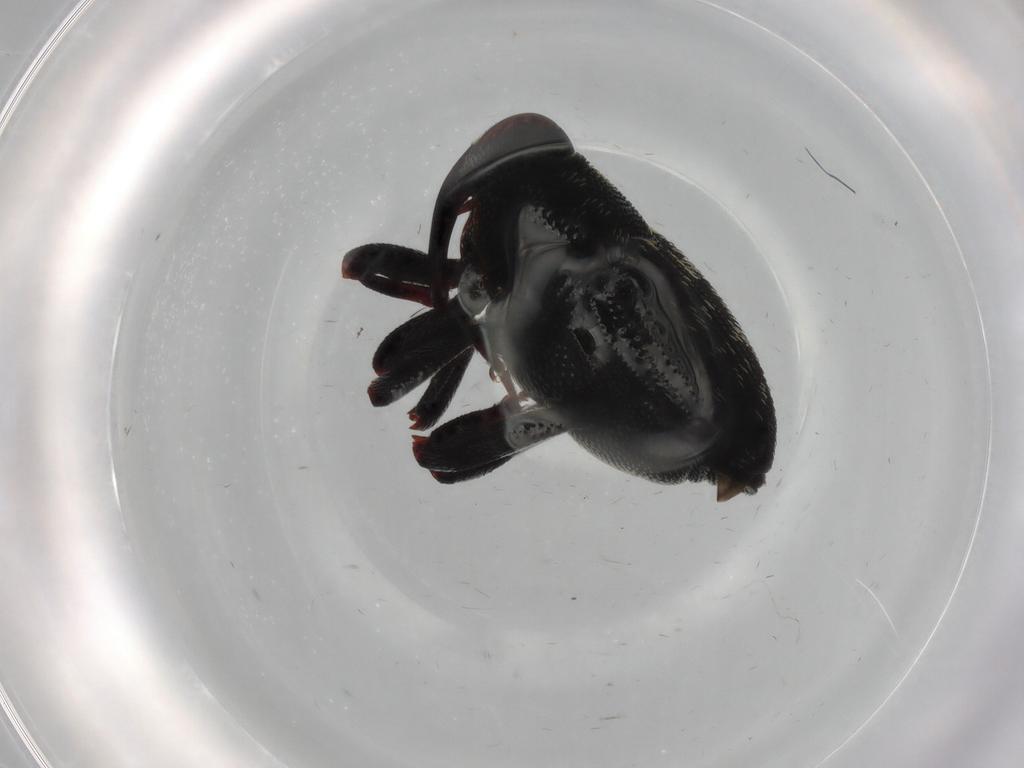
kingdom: Animalia
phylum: Arthropoda
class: Insecta
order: Coleoptera
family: Curculionidae
